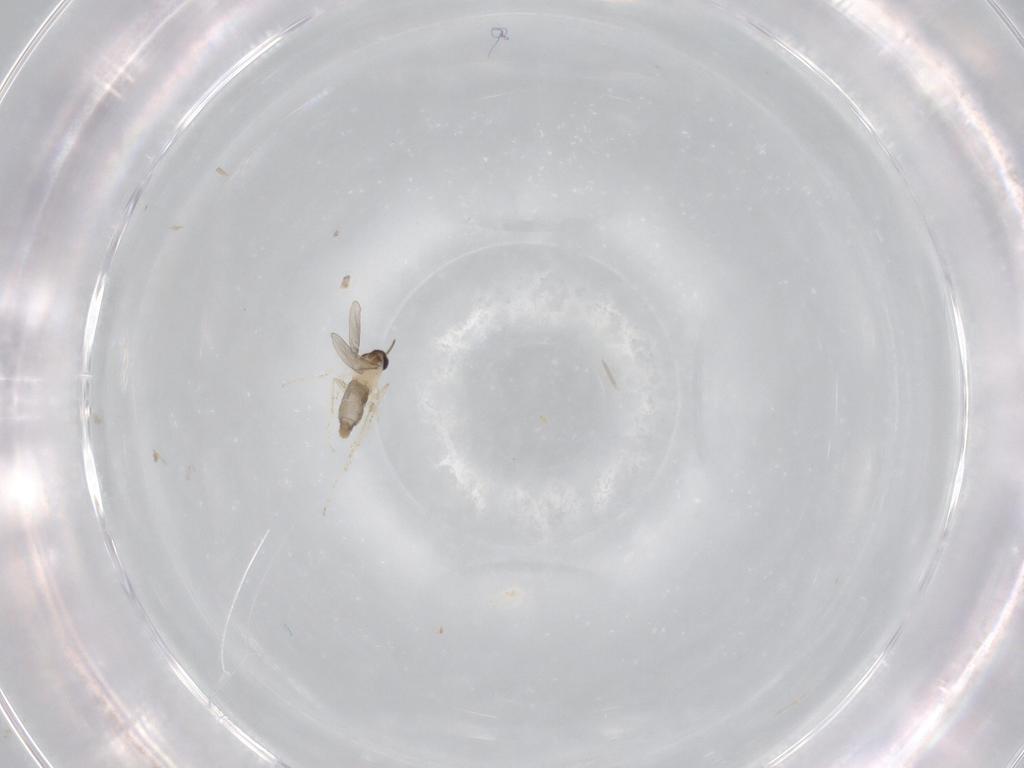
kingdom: Animalia
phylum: Arthropoda
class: Insecta
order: Diptera
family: Cecidomyiidae
